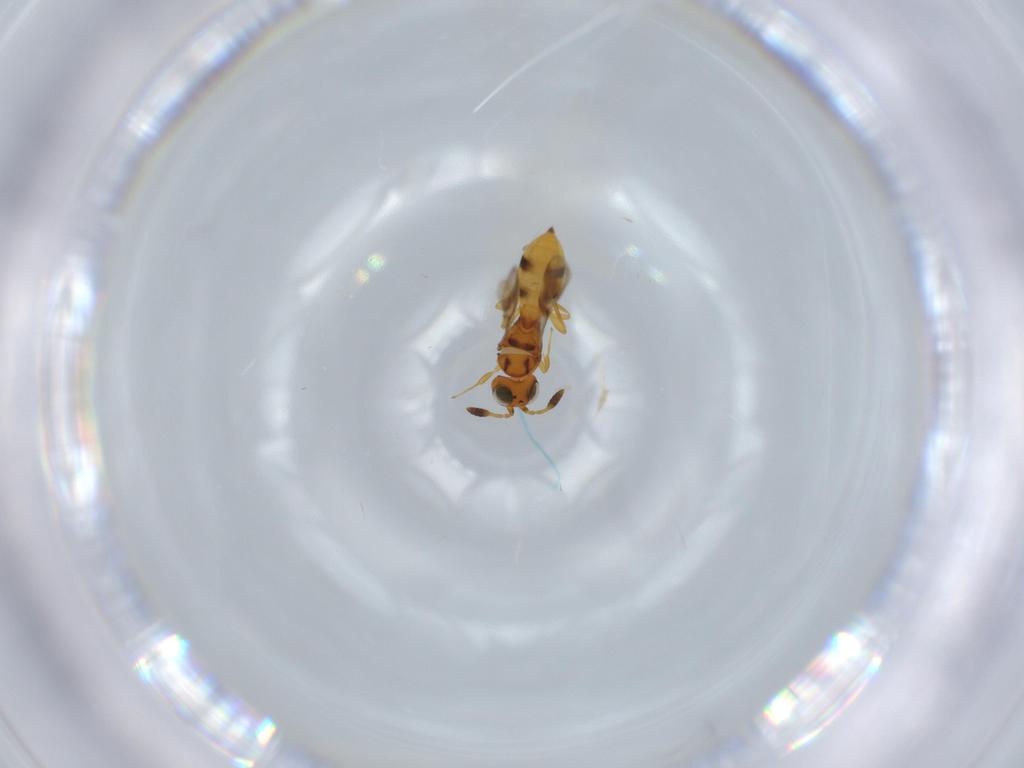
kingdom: Animalia
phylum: Arthropoda
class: Insecta
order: Hymenoptera
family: Scelionidae
